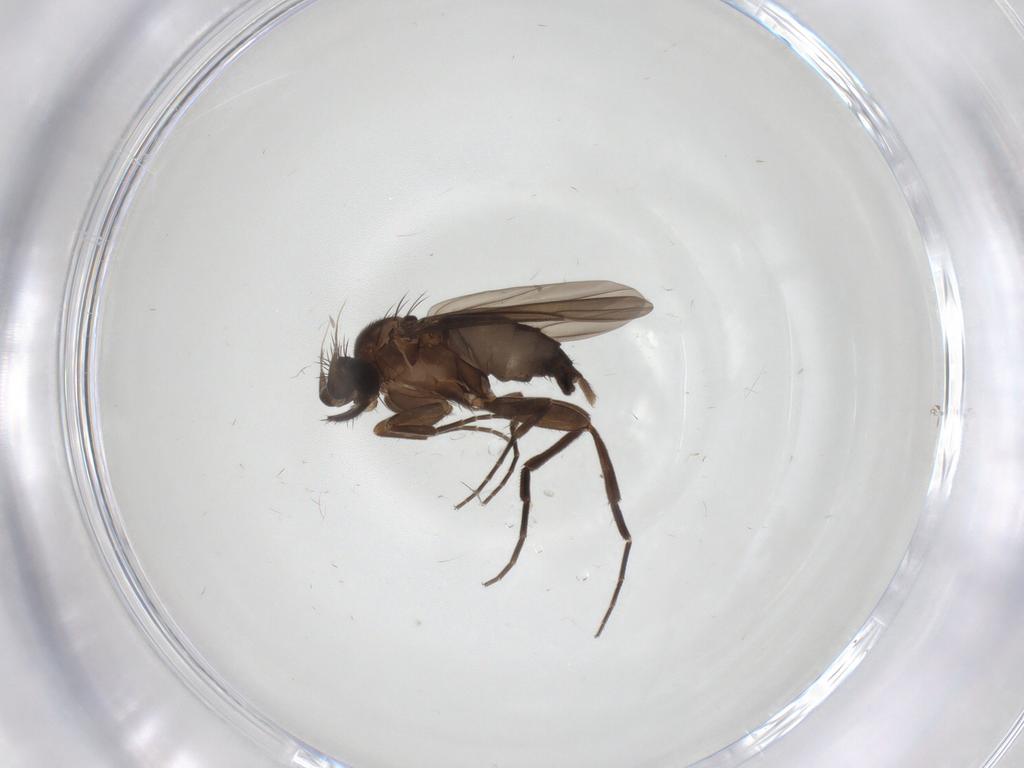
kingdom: Animalia
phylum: Arthropoda
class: Insecta
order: Diptera
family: Phoridae
